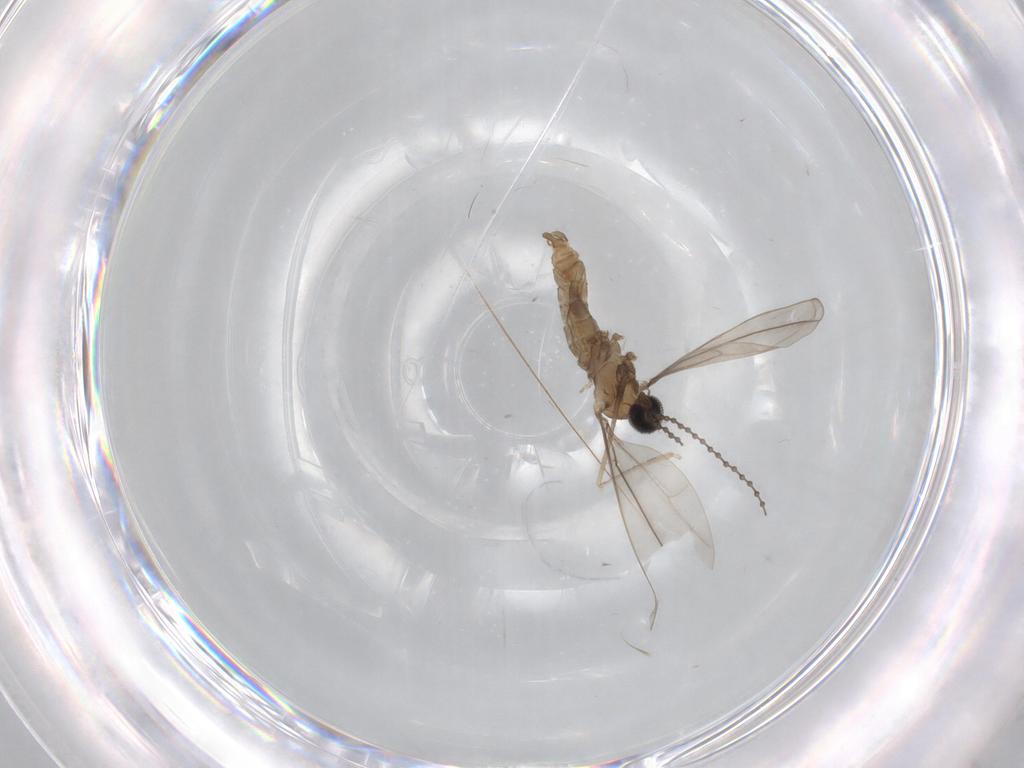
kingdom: Animalia
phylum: Arthropoda
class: Insecta
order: Diptera
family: Cecidomyiidae
